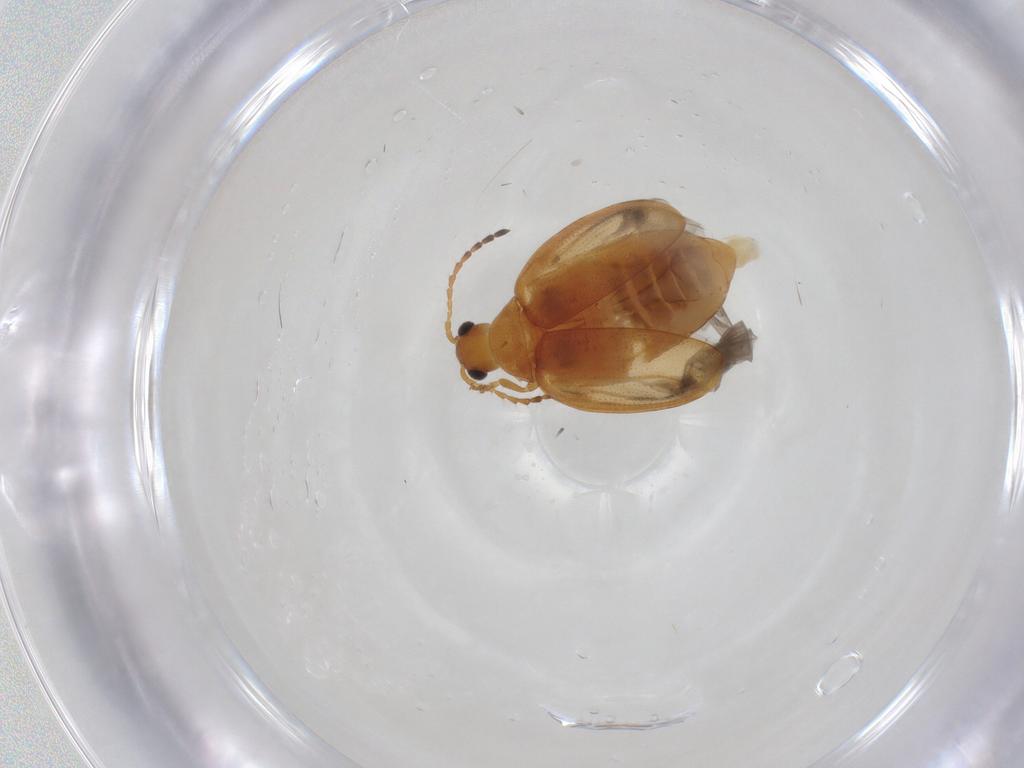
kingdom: Animalia
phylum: Arthropoda
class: Insecta
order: Coleoptera
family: Chrysomelidae
